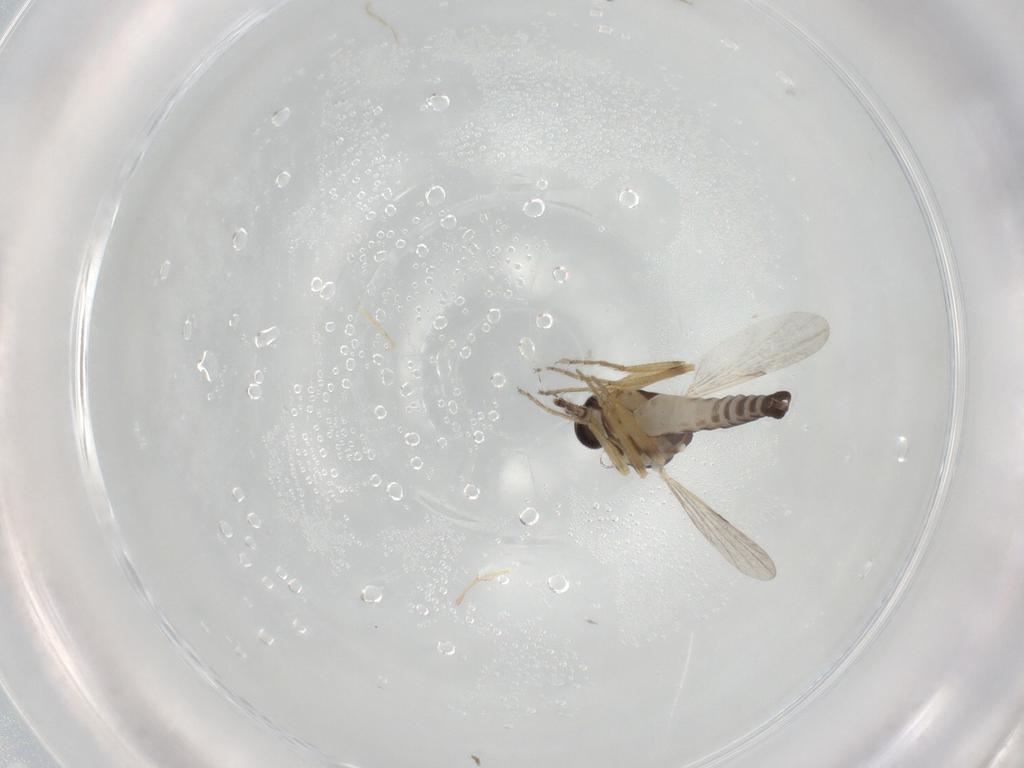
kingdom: Animalia
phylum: Arthropoda
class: Insecta
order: Diptera
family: Ceratopogonidae
